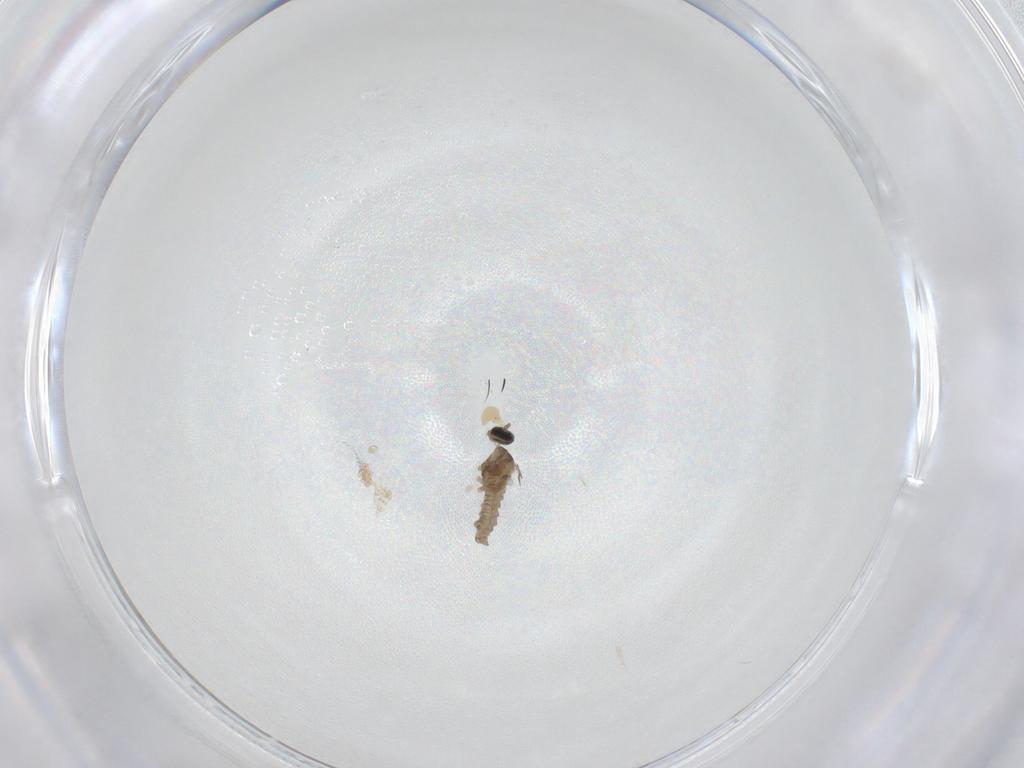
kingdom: Animalia
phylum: Arthropoda
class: Insecta
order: Diptera
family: Cecidomyiidae
